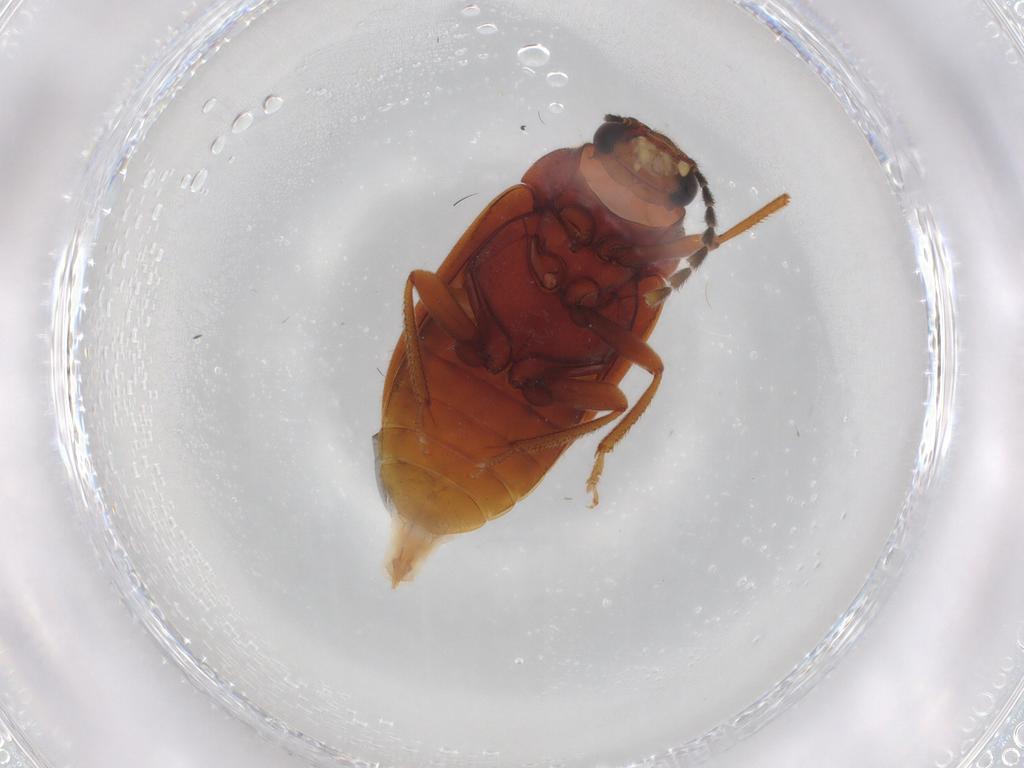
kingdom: Animalia
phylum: Arthropoda
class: Insecta
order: Coleoptera
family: Ptilodactylidae
